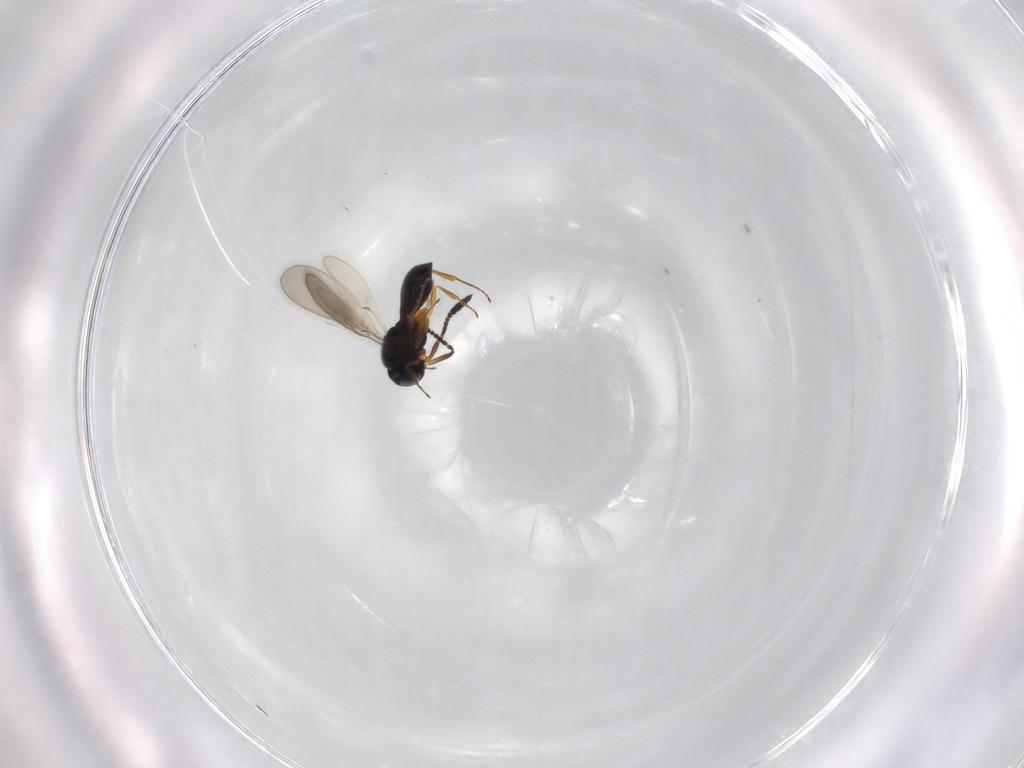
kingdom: Animalia
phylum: Arthropoda
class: Insecta
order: Hymenoptera
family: Scelionidae
